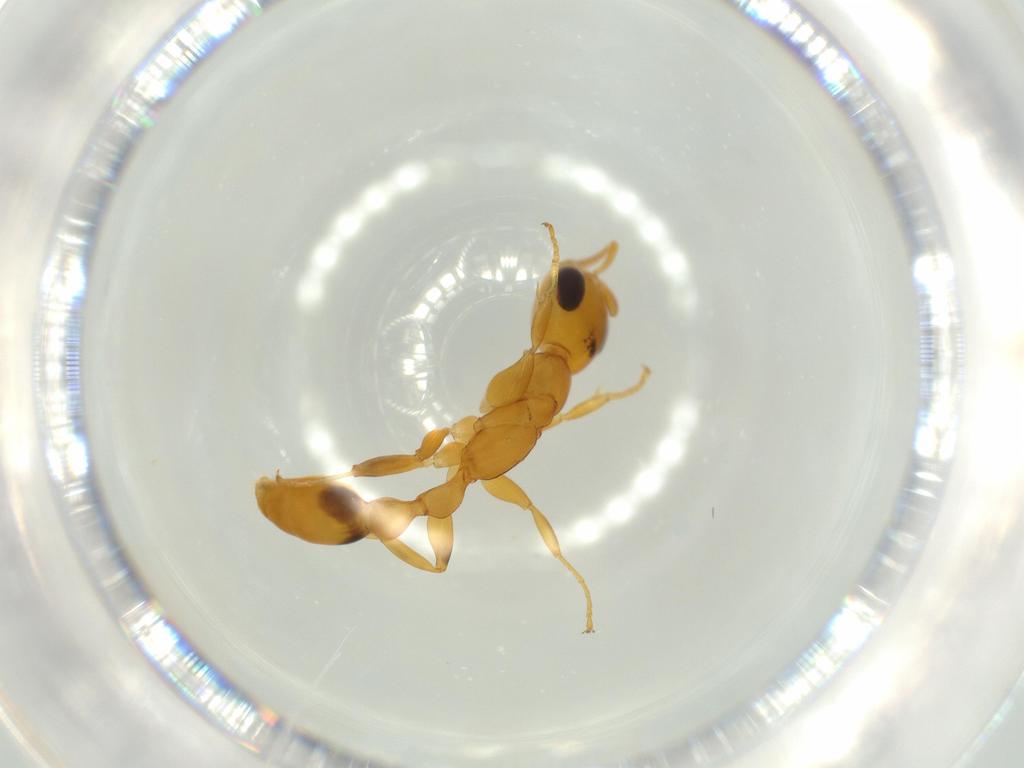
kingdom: Animalia
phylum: Arthropoda
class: Insecta
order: Hymenoptera
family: Formicidae
